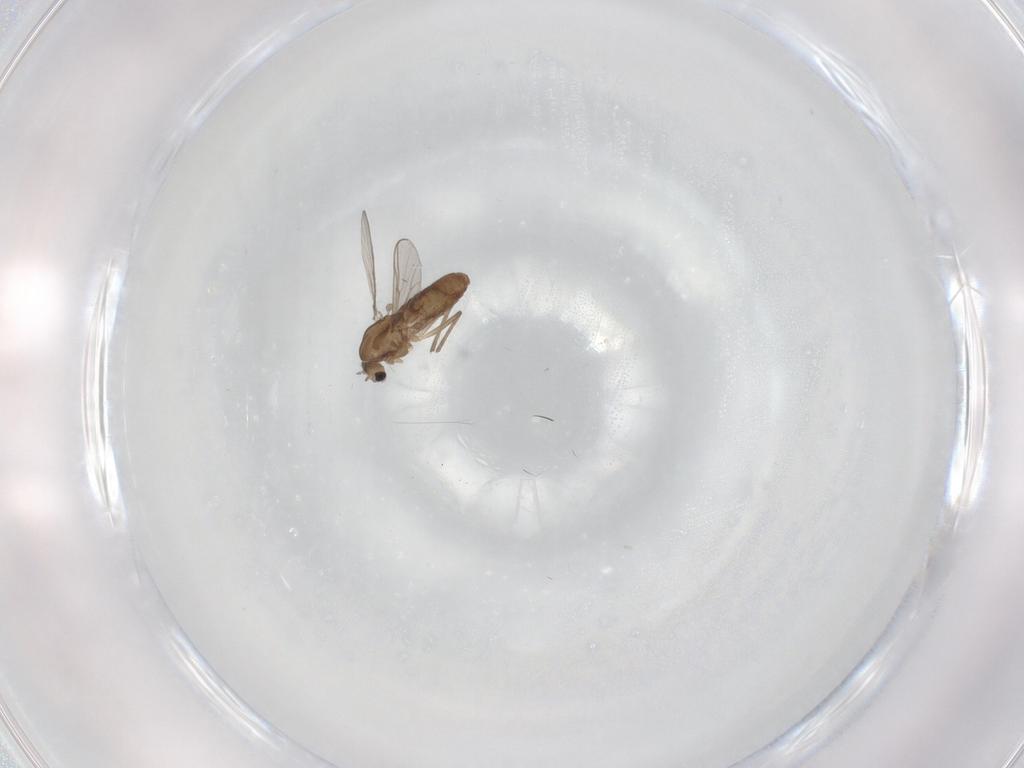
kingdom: Animalia
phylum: Arthropoda
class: Insecta
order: Diptera
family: Chironomidae
